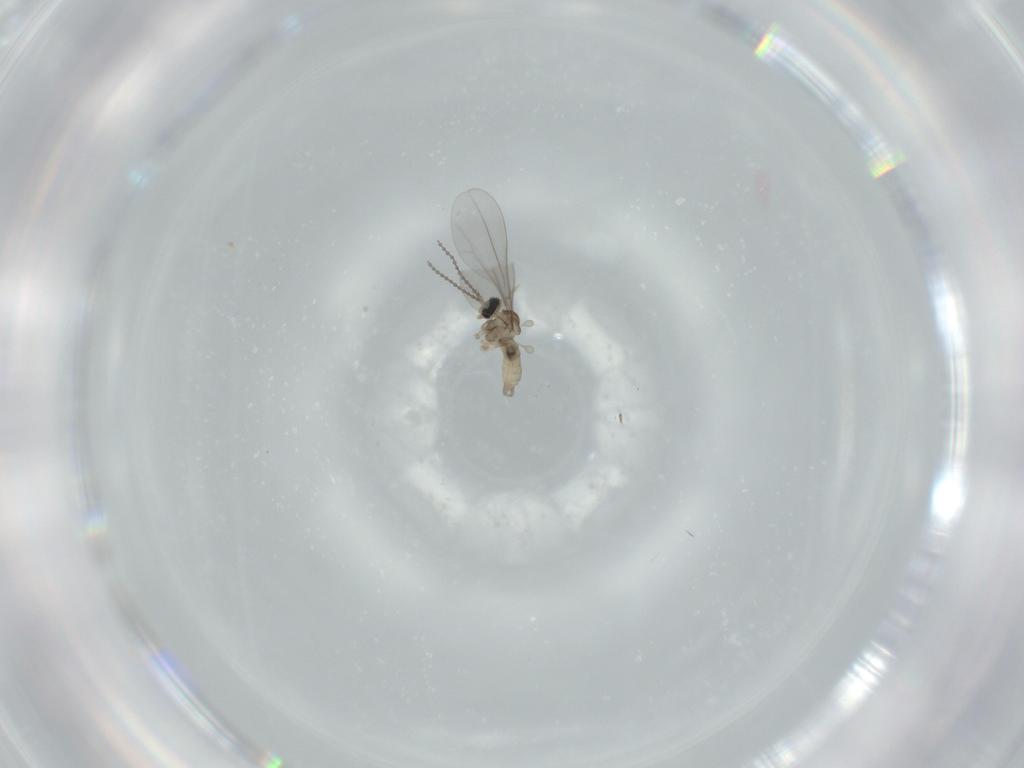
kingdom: Animalia
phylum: Arthropoda
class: Insecta
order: Diptera
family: Cecidomyiidae
